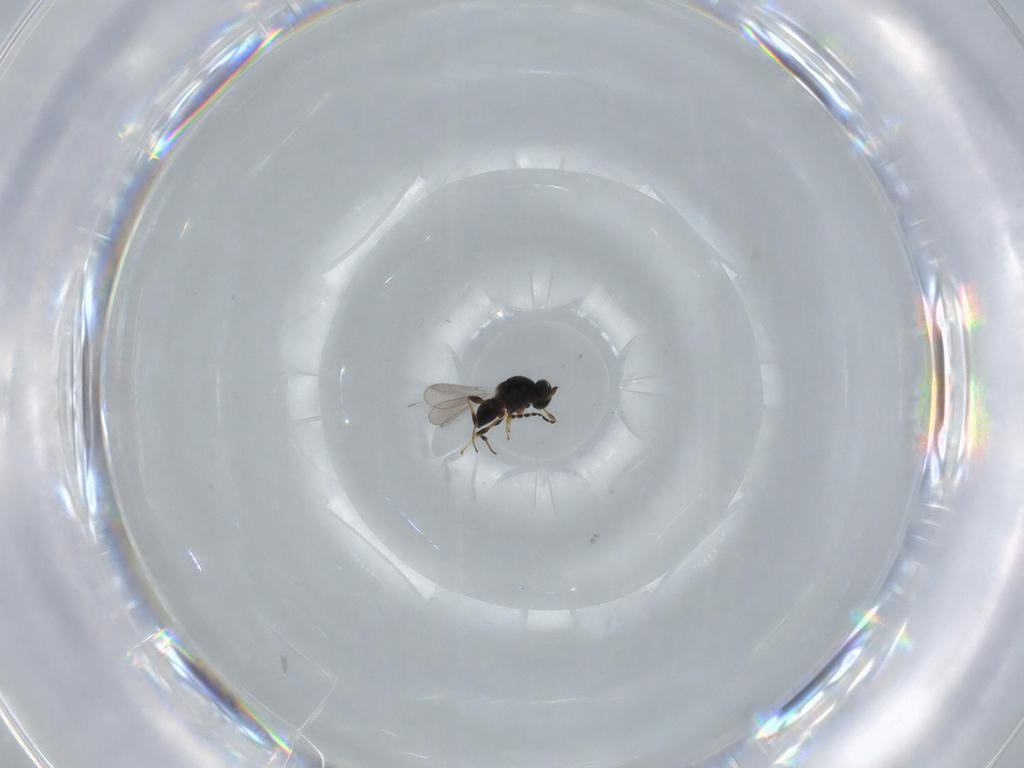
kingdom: Animalia
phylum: Arthropoda
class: Insecta
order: Hymenoptera
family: Platygastridae
